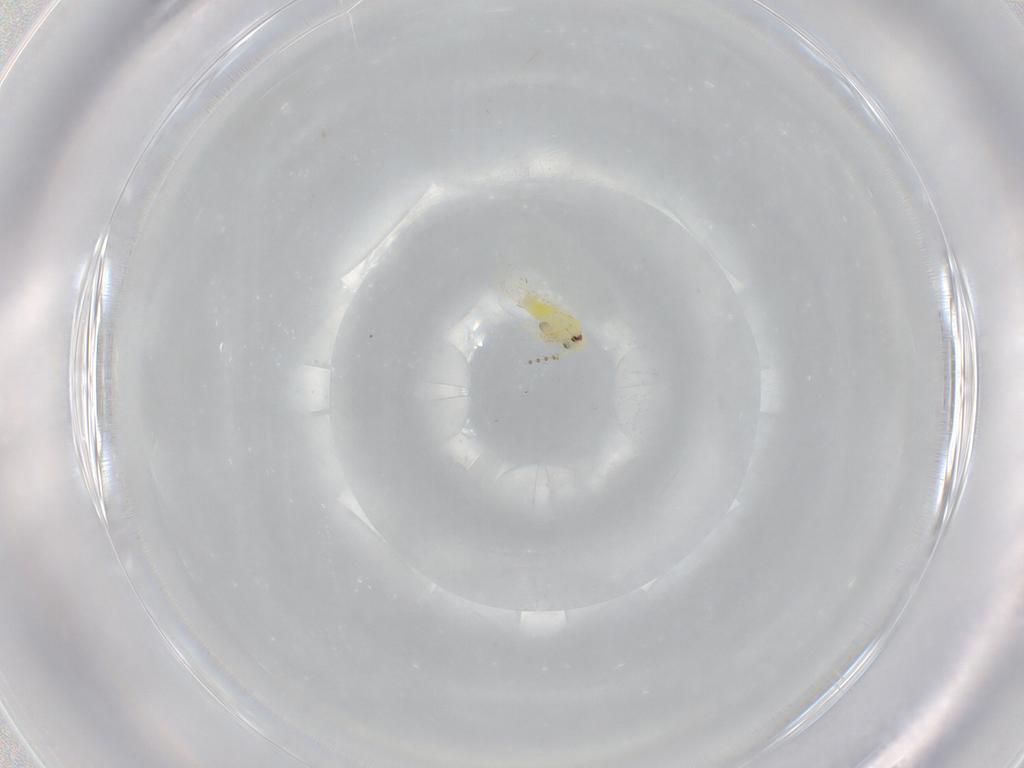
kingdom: Animalia
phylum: Arthropoda
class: Insecta
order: Hemiptera
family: Aleyrodidae
